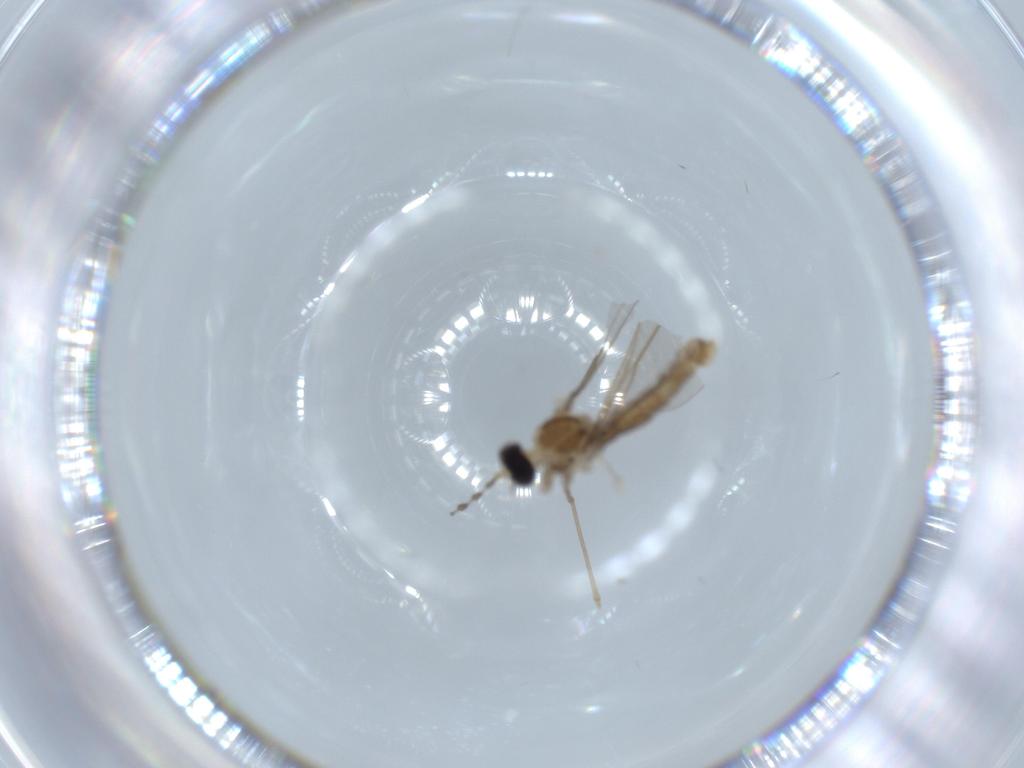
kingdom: Animalia
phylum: Arthropoda
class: Insecta
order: Diptera
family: Cecidomyiidae
